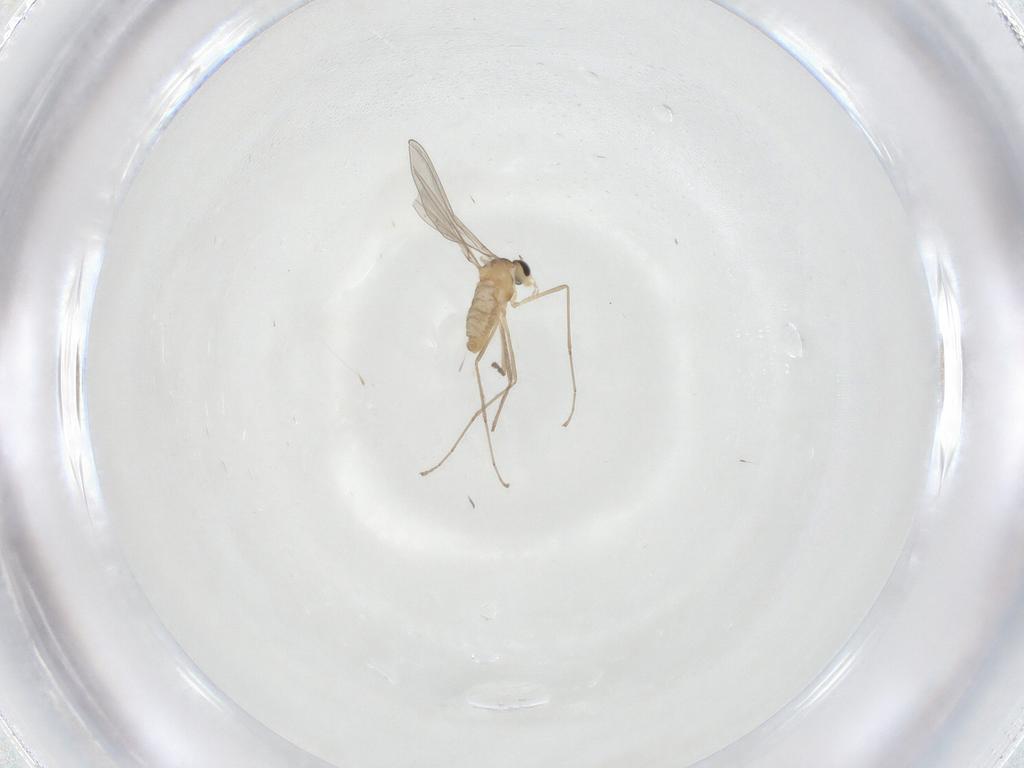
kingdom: Animalia
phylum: Arthropoda
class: Insecta
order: Diptera
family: Cecidomyiidae
